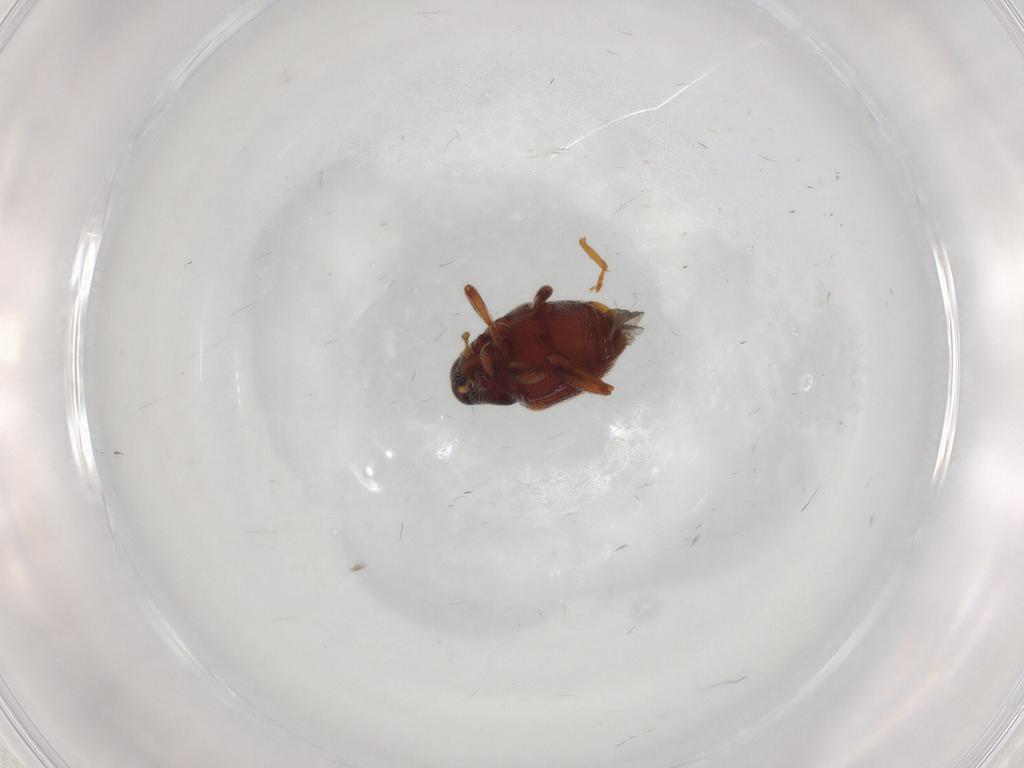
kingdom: Animalia
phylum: Arthropoda
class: Insecta
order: Coleoptera
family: Curculionidae
